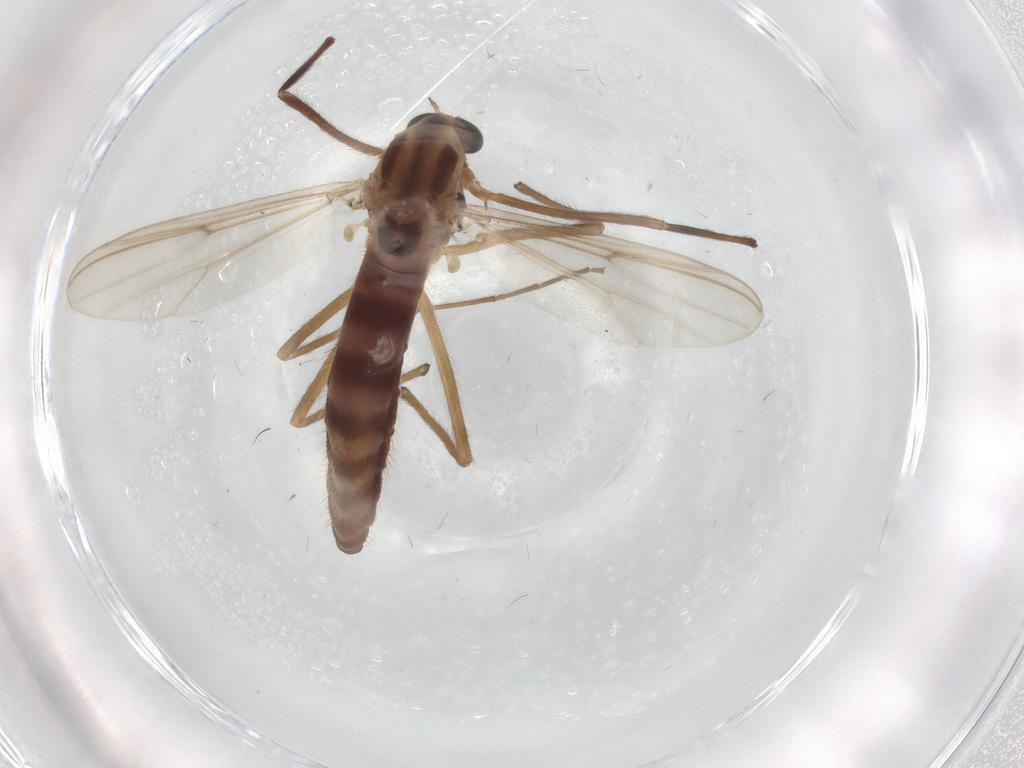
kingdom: Animalia
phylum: Arthropoda
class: Insecta
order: Diptera
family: Chironomidae
